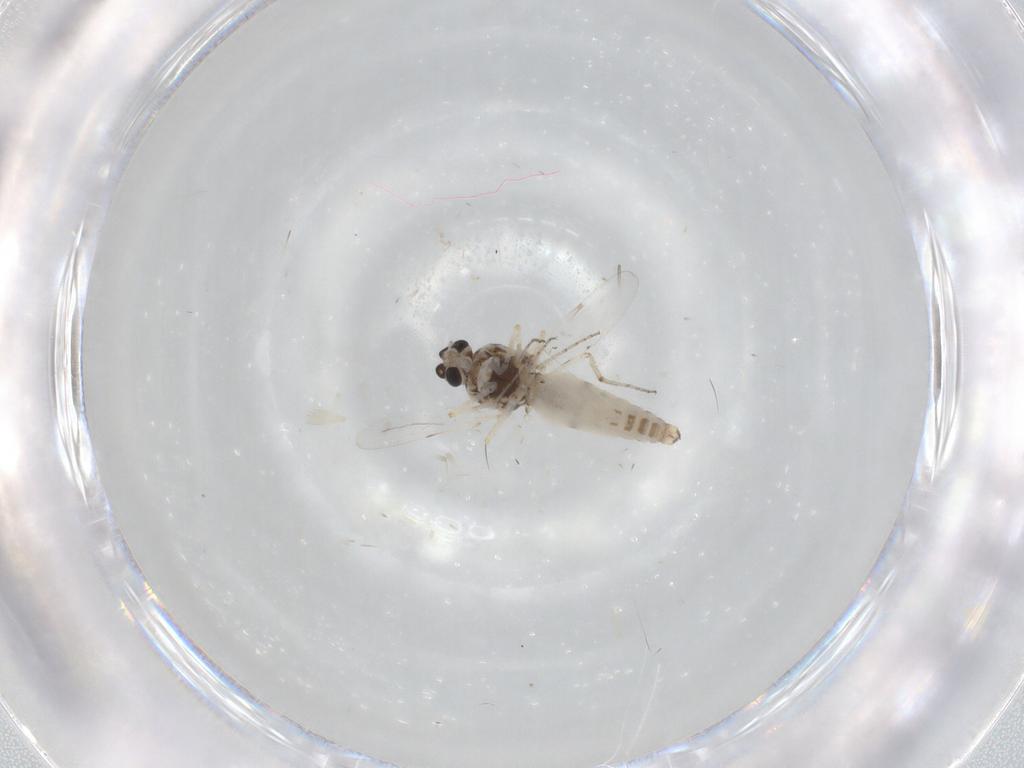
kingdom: Animalia
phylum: Arthropoda
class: Insecta
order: Diptera
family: Ceratopogonidae
